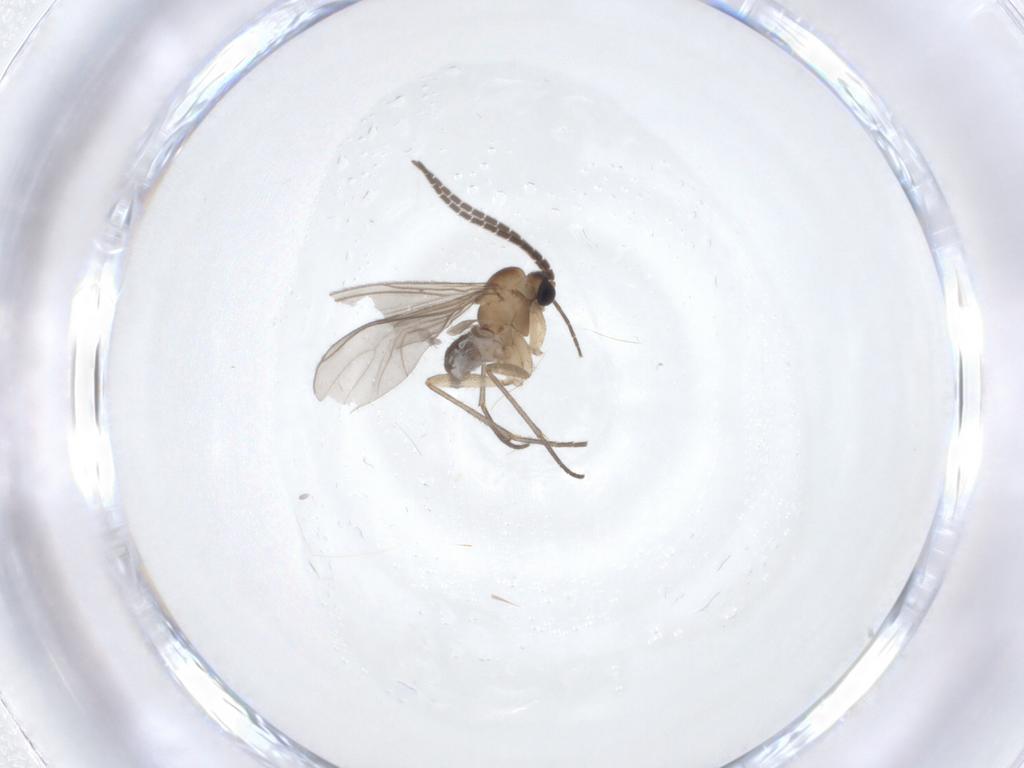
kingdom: Animalia
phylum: Arthropoda
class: Insecta
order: Diptera
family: Sciaridae
